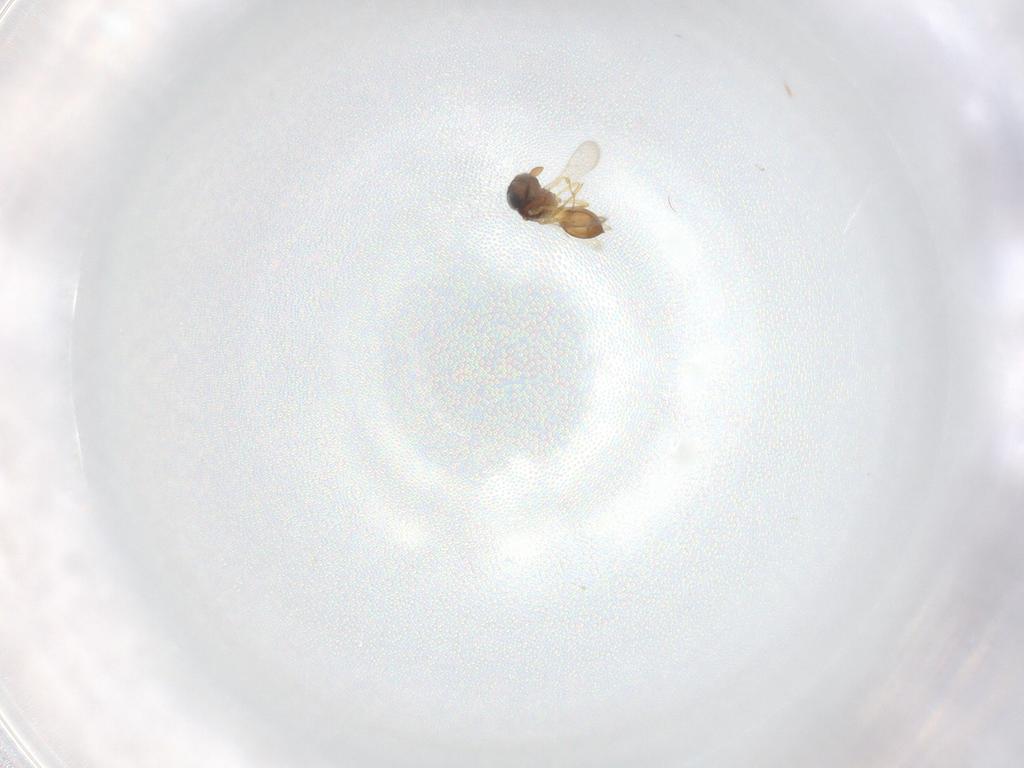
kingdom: Animalia
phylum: Arthropoda
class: Insecta
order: Hymenoptera
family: Scelionidae
